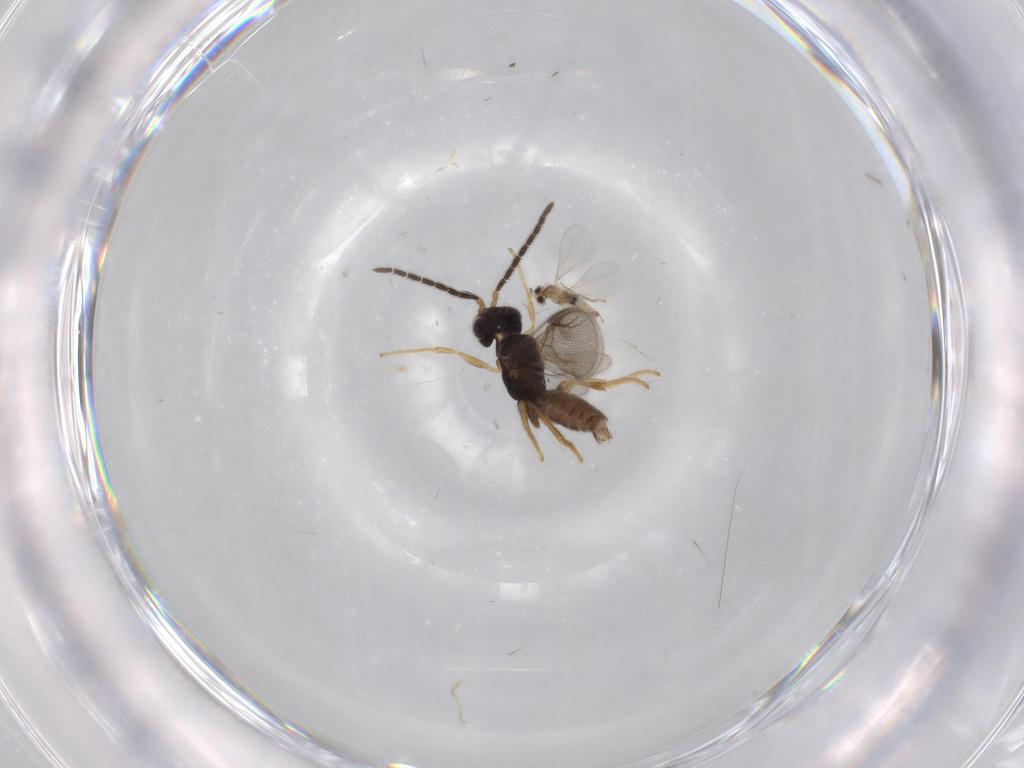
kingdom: Animalia
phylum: Arthropoda
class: Insecta
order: Hymenoptera
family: Dryinidae
